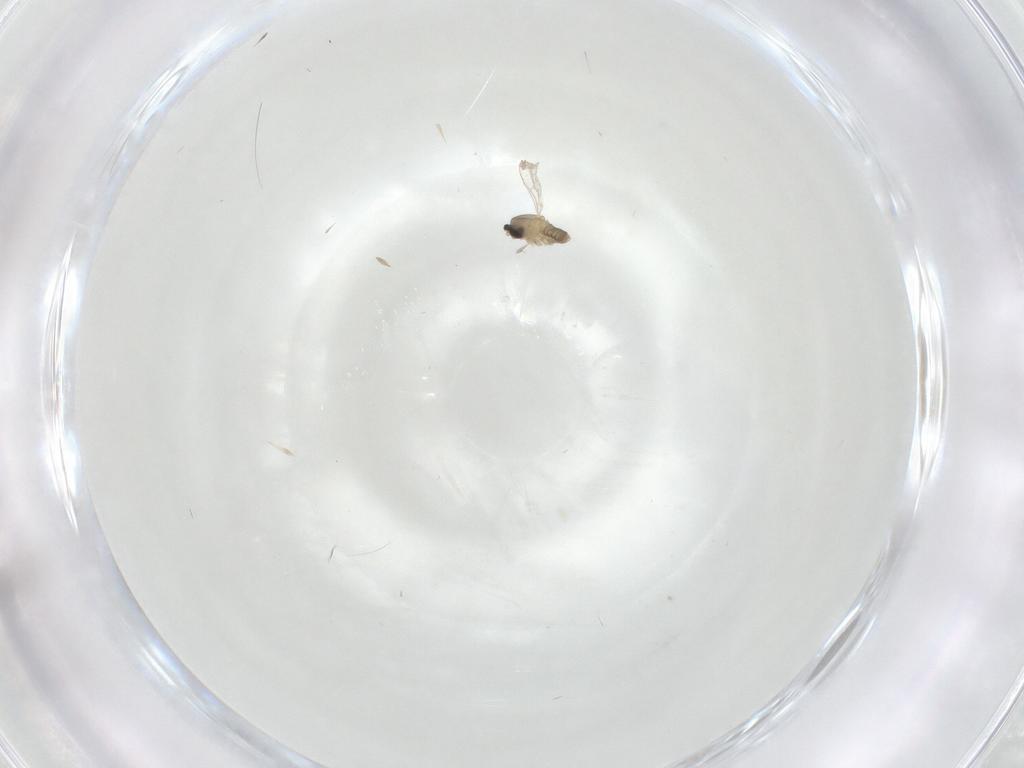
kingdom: Animalia
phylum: Arthropoda
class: Insecta
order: Diptera
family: Cecidomyiidae
